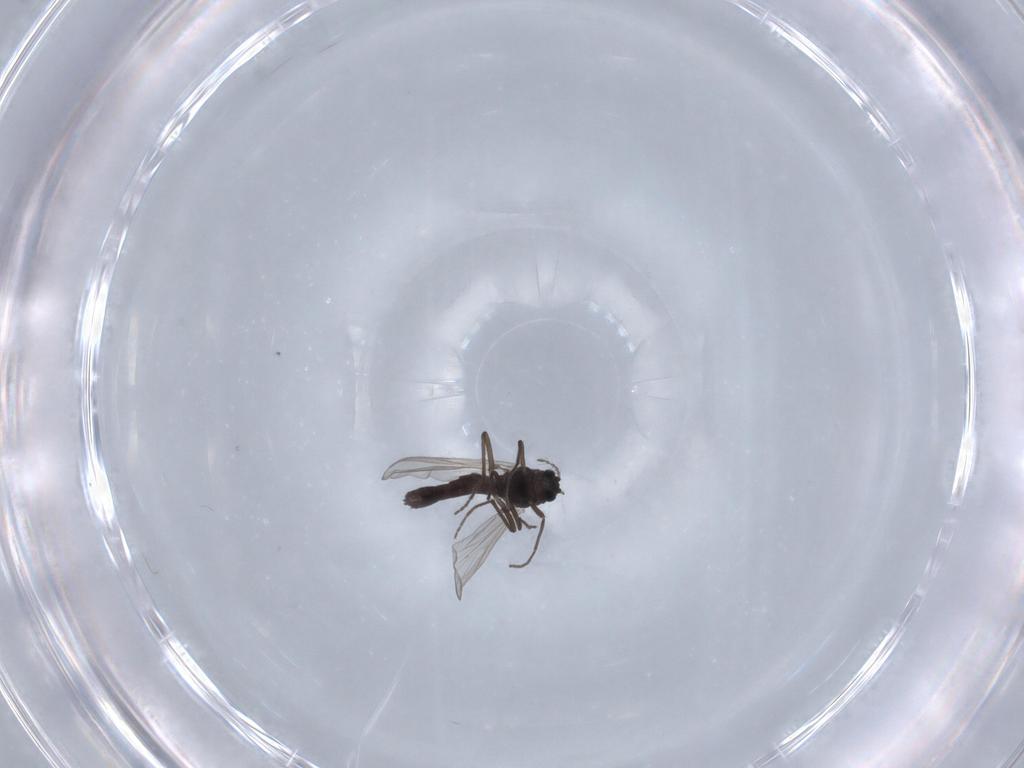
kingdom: Animalia
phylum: Arthropoda
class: Insecta
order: Diptera
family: Chironomidae
